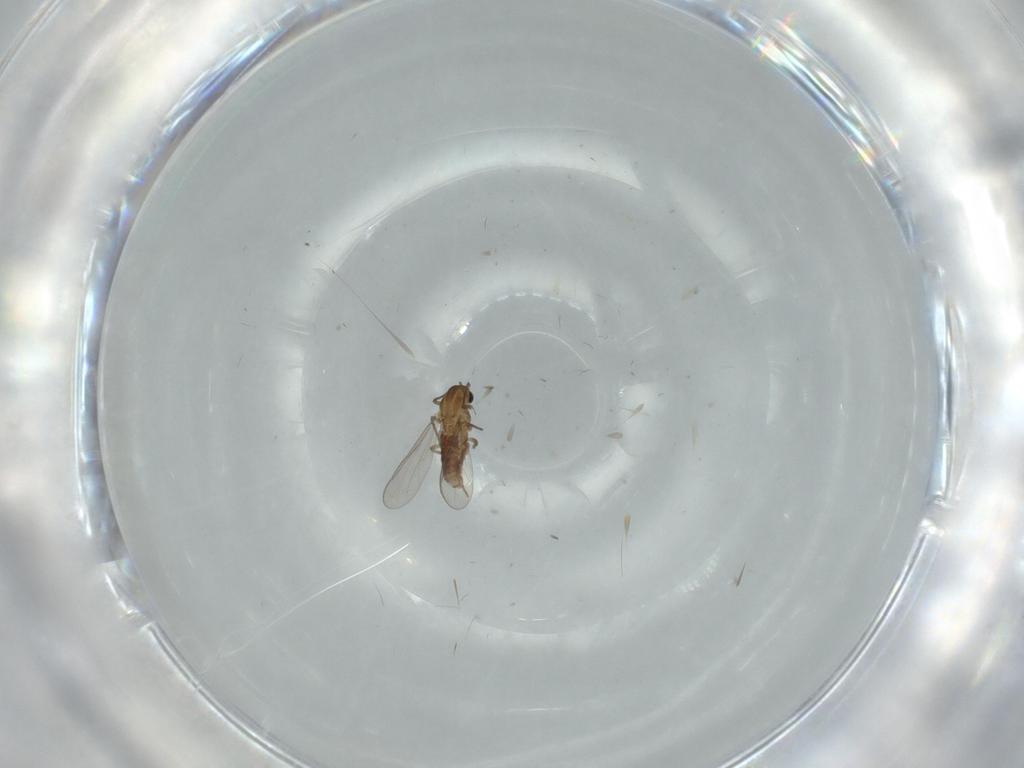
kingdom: Animalia
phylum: Arthropoda
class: Insecta
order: Diptera
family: Chironomidae
